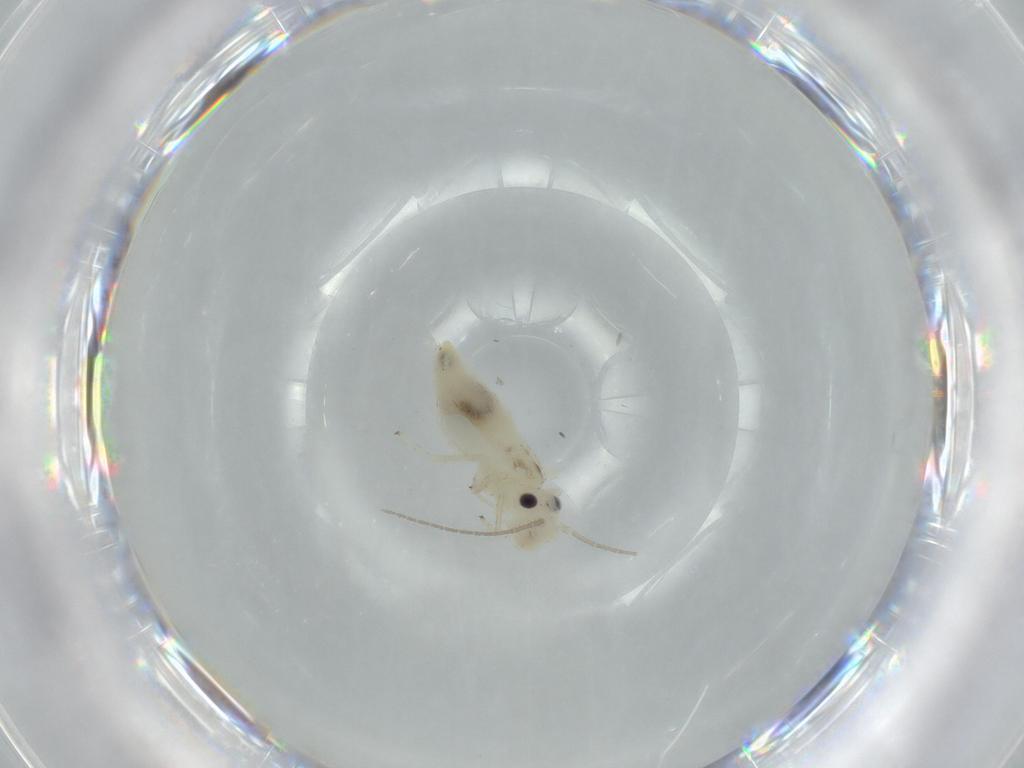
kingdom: Animalia
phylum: Arthropoda
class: Insecta
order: Psocodea
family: Caeciliusidae
